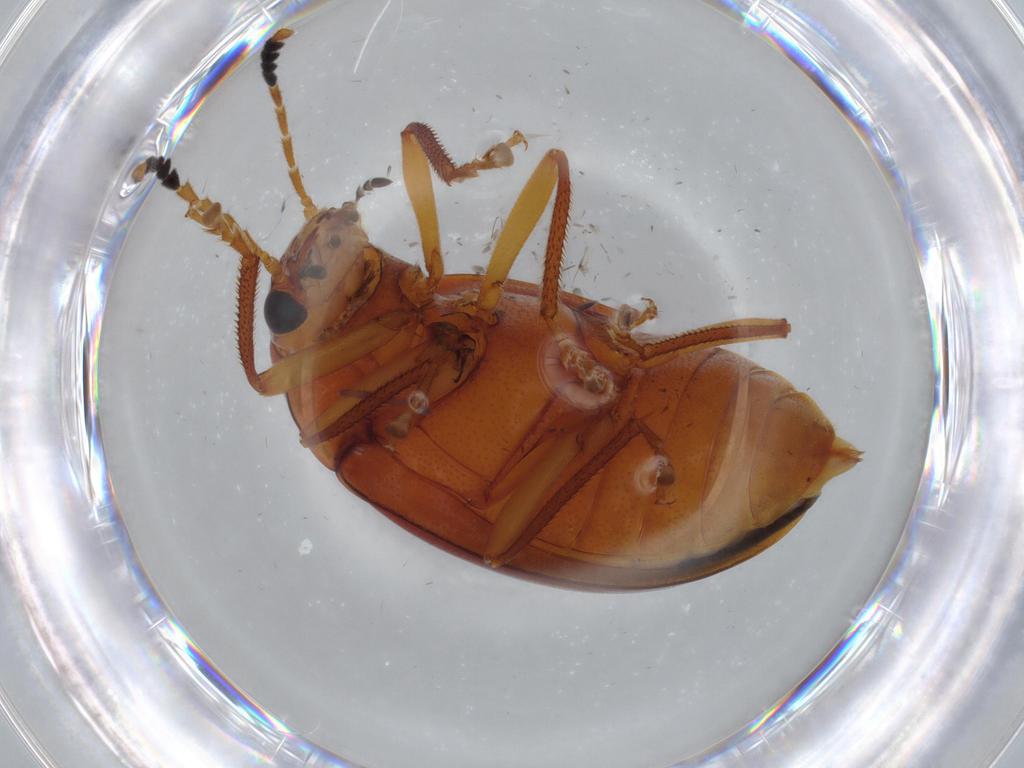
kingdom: Animalia
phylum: Arthropoda
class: Insecta
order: Coleoptera
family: Ptilodactylidae
